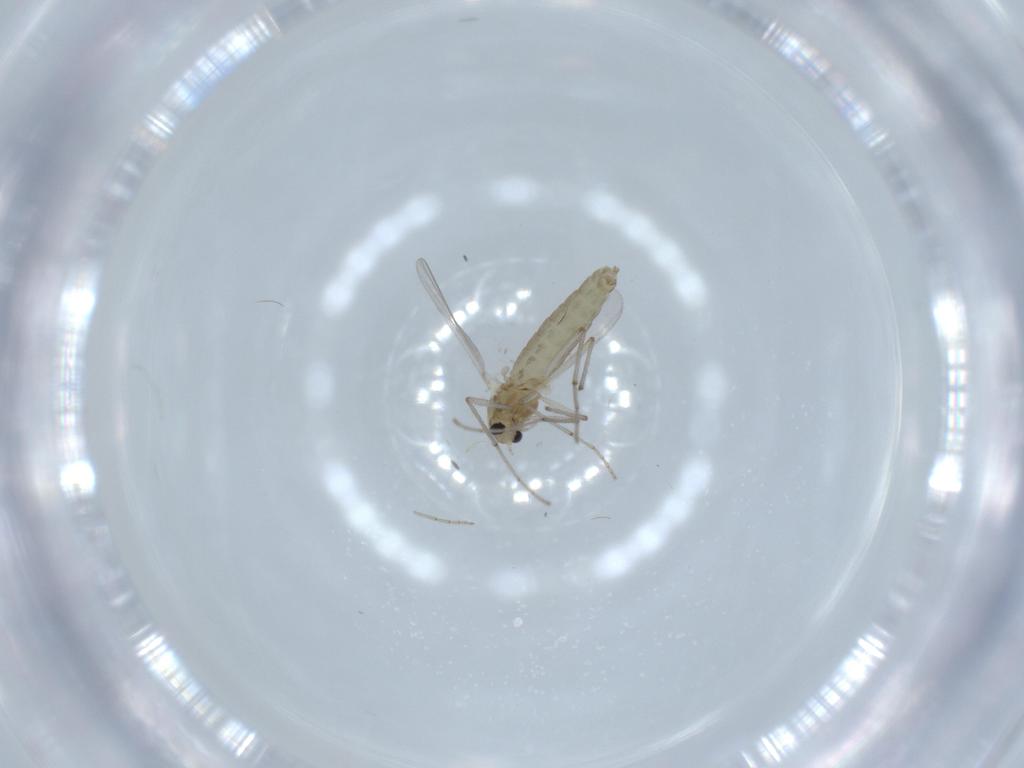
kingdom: Animalia
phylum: Arthropoda
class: Insecta
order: Diptera
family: Chironomidae
